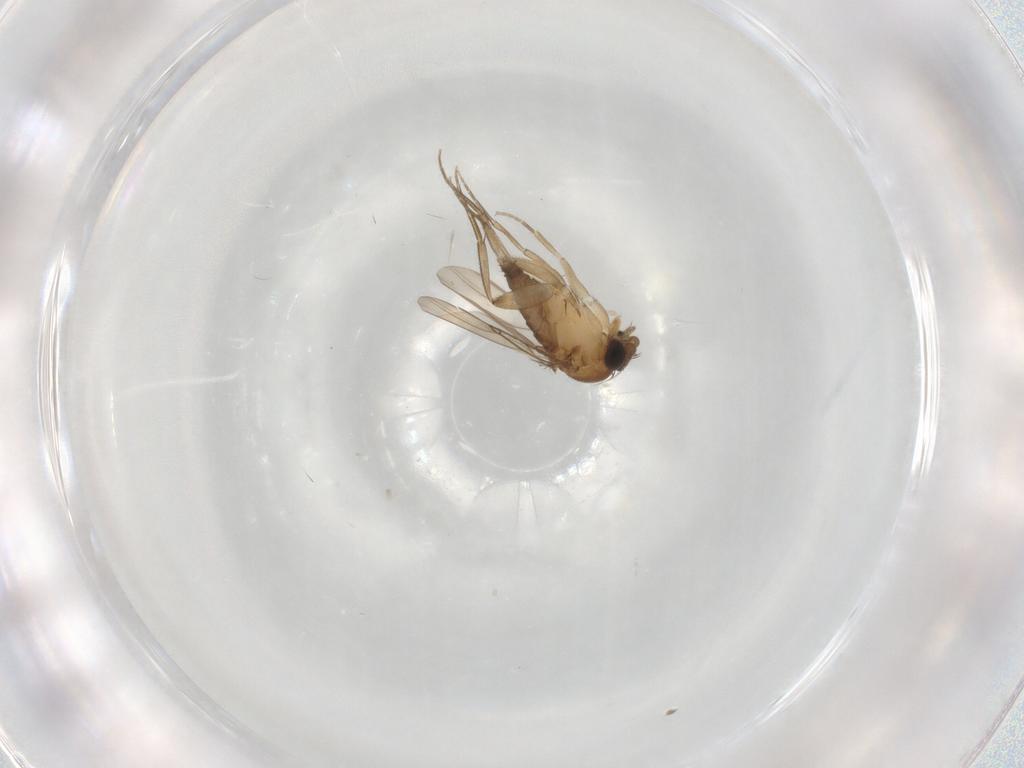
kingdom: Animalia
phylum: Arthropoda
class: Insecta
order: Diptera
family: Phoridae
